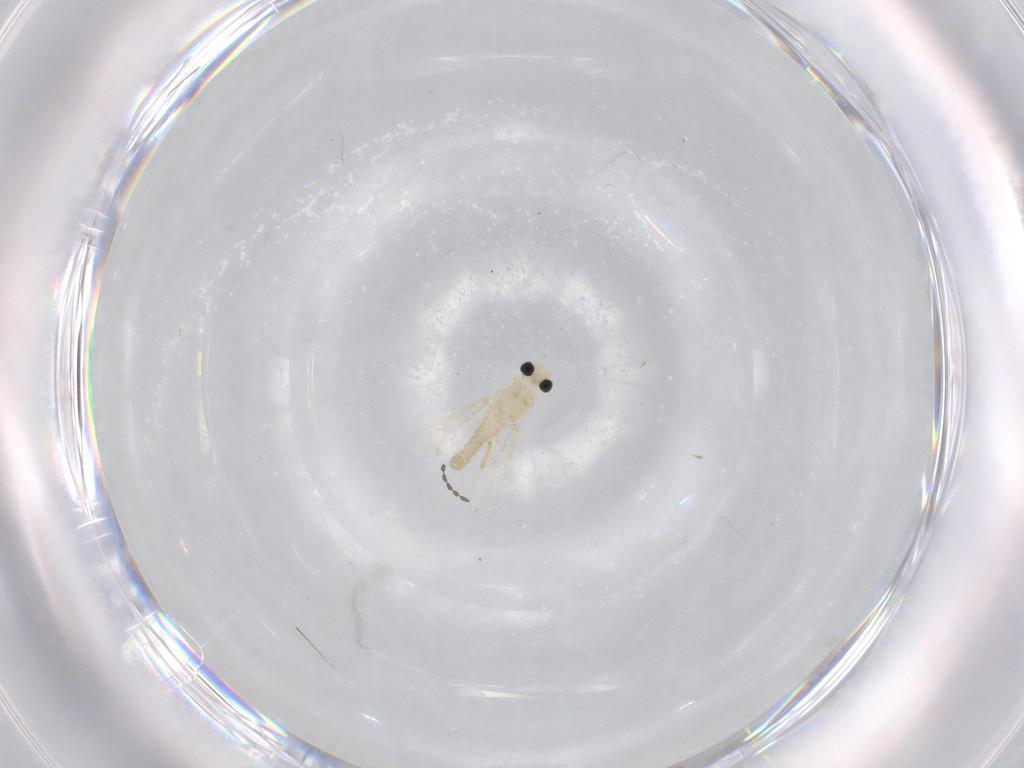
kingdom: Animalia
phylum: Arthropoda
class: Insecta
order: Diptera
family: Chironomidae
